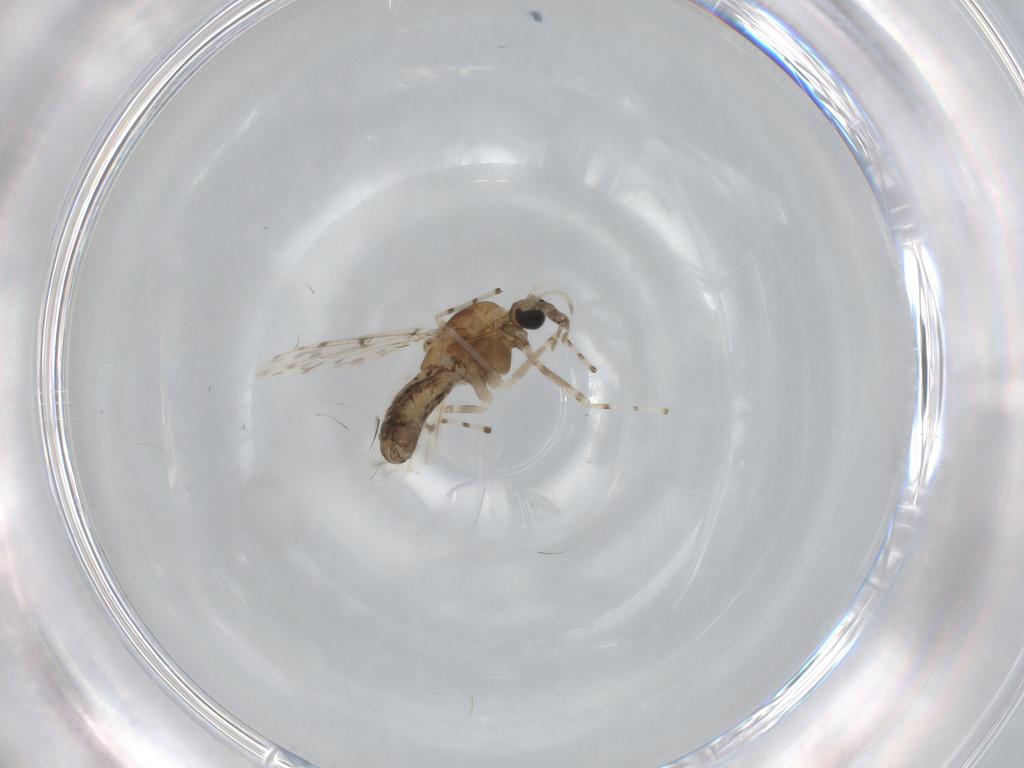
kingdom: Animalia
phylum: Arthropoda
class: Insecta
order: Diptera
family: Chironomidae
